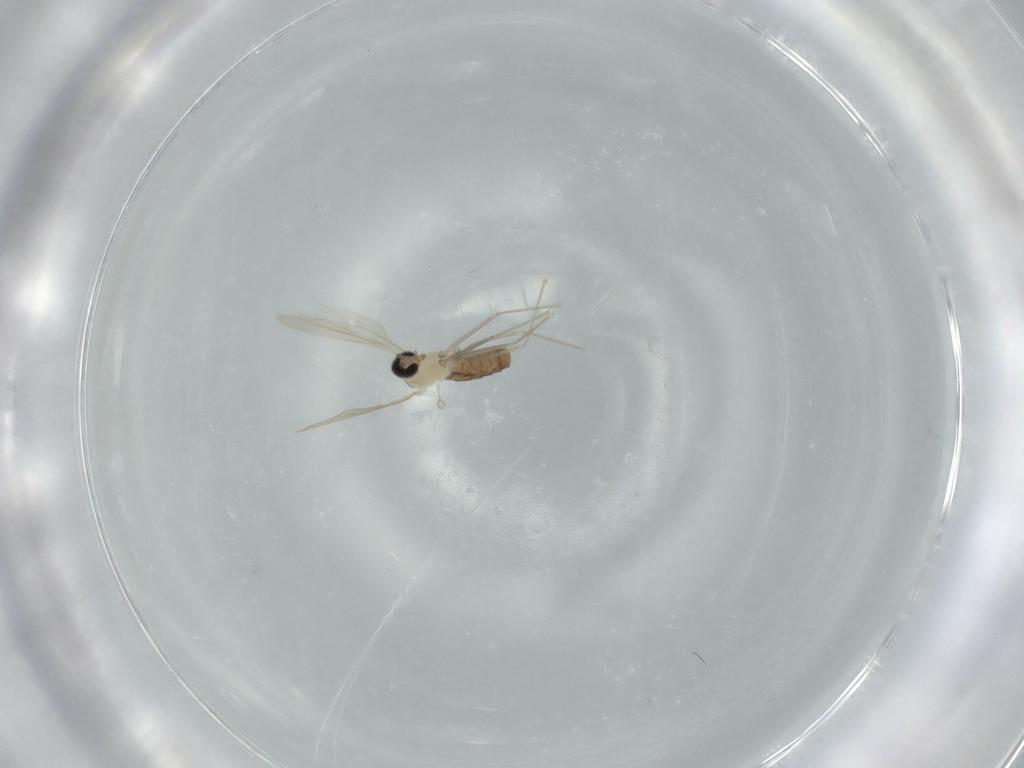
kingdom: Animalia
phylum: Arthropoda
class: Insecta
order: Diptera
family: Cecidomyiidae
